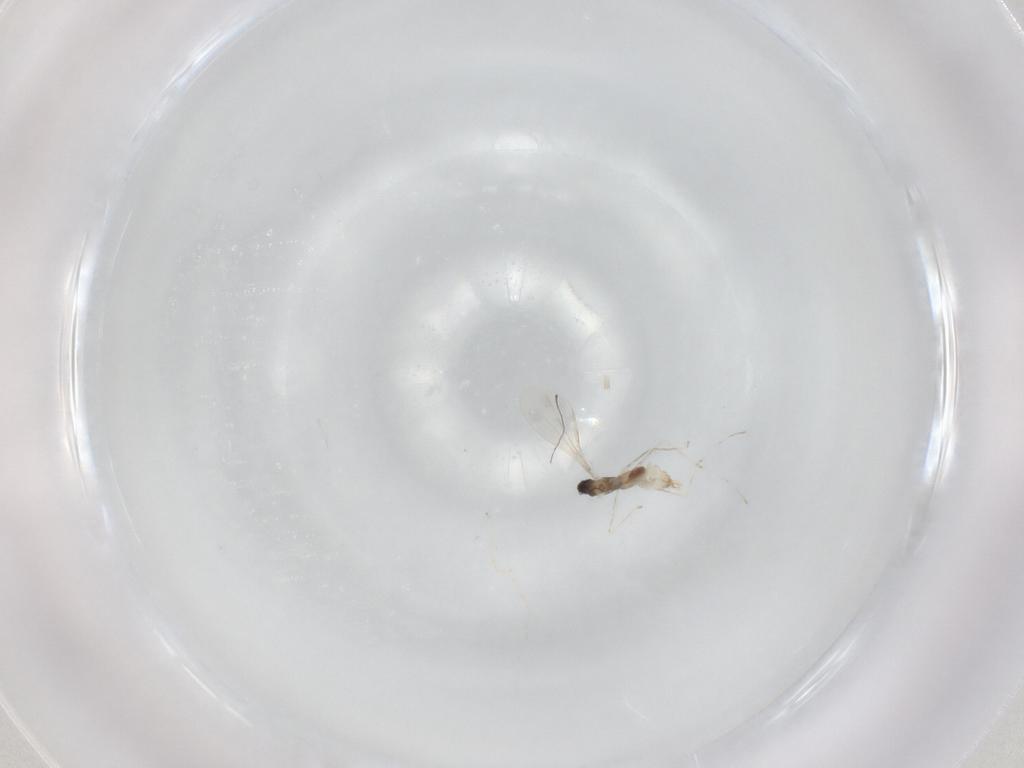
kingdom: Animalia
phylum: Arthropoda
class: Insecta
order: Diptera
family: Cecidomyiidae
